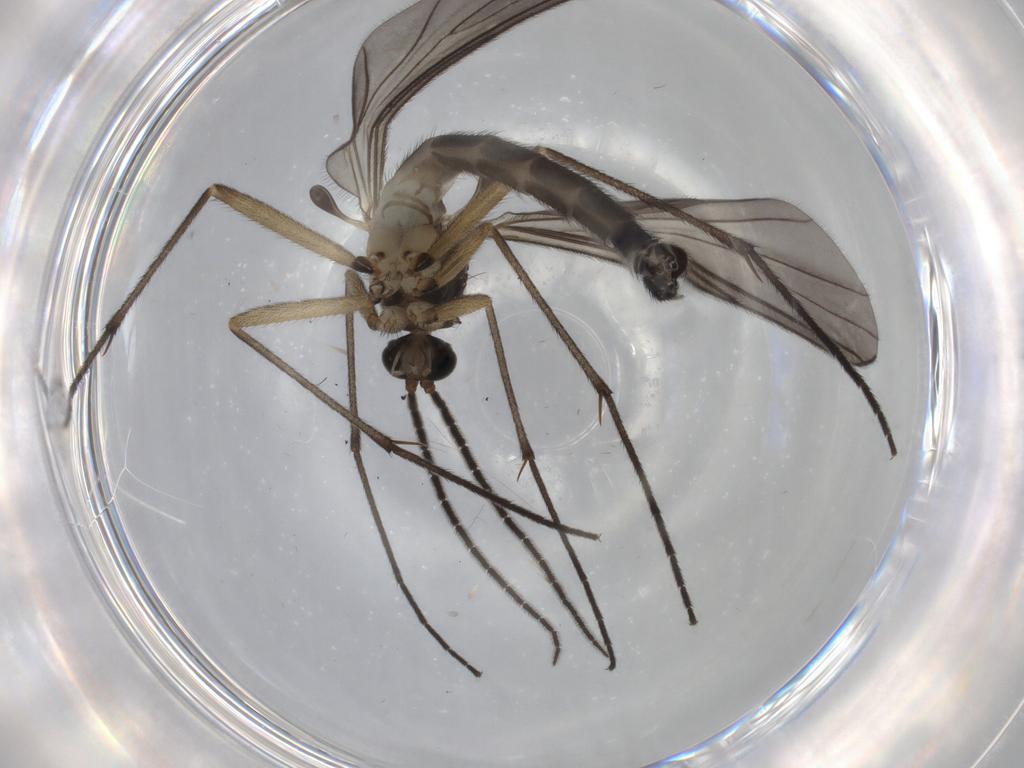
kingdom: Animalia
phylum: Arthropoda
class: Insecta
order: Diptera
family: Sciaridae
